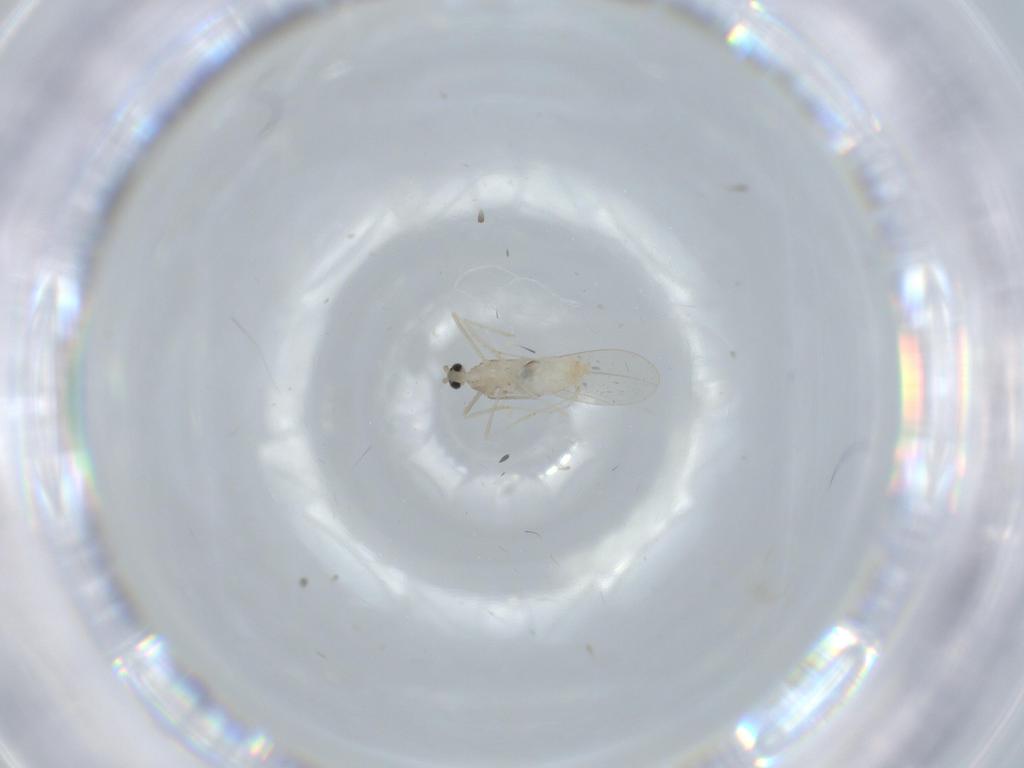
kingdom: Animalia
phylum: Arthropoda
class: Insecta
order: Diptera
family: Cecidomyiidae
